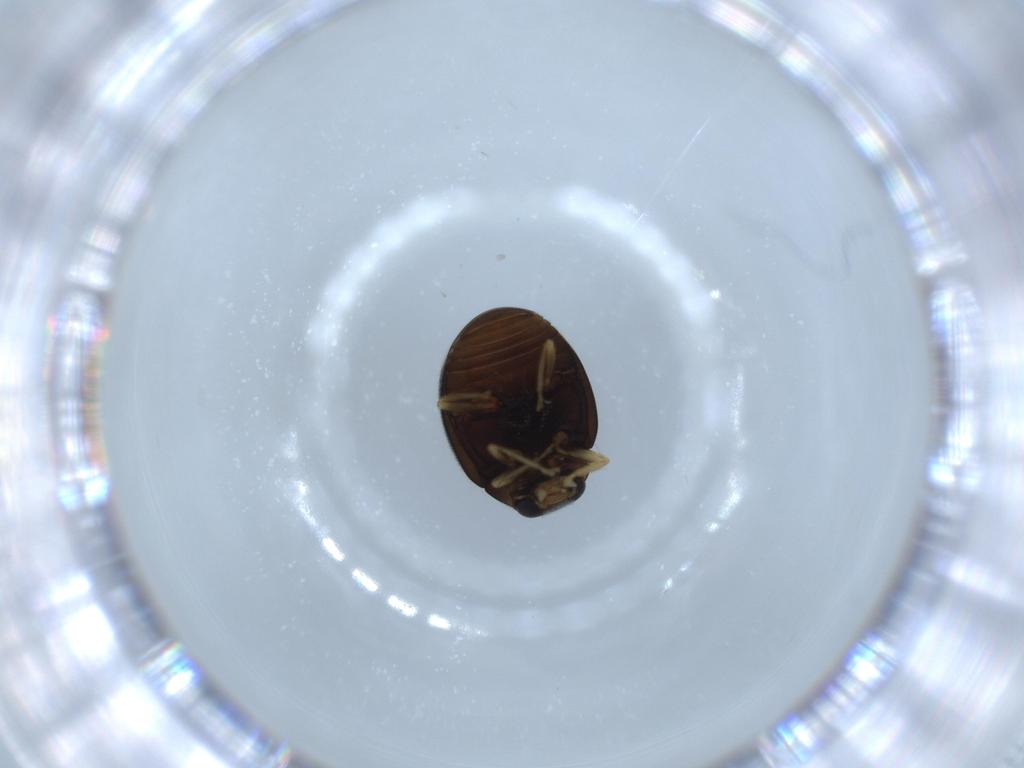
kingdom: Animalia
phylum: Arthropoda
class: Insecta
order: Coleoptera
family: Coccinellidae
